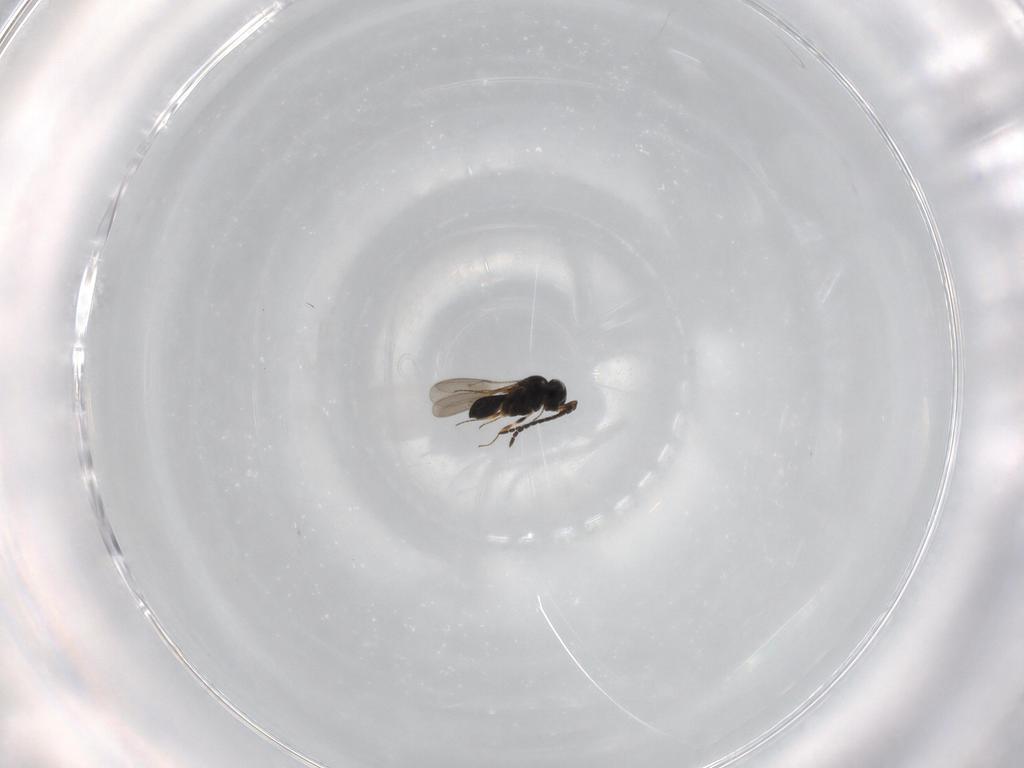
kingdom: Animalia
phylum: Arthropoda
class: Insecta
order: Hymenoptera
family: Scelionidae
